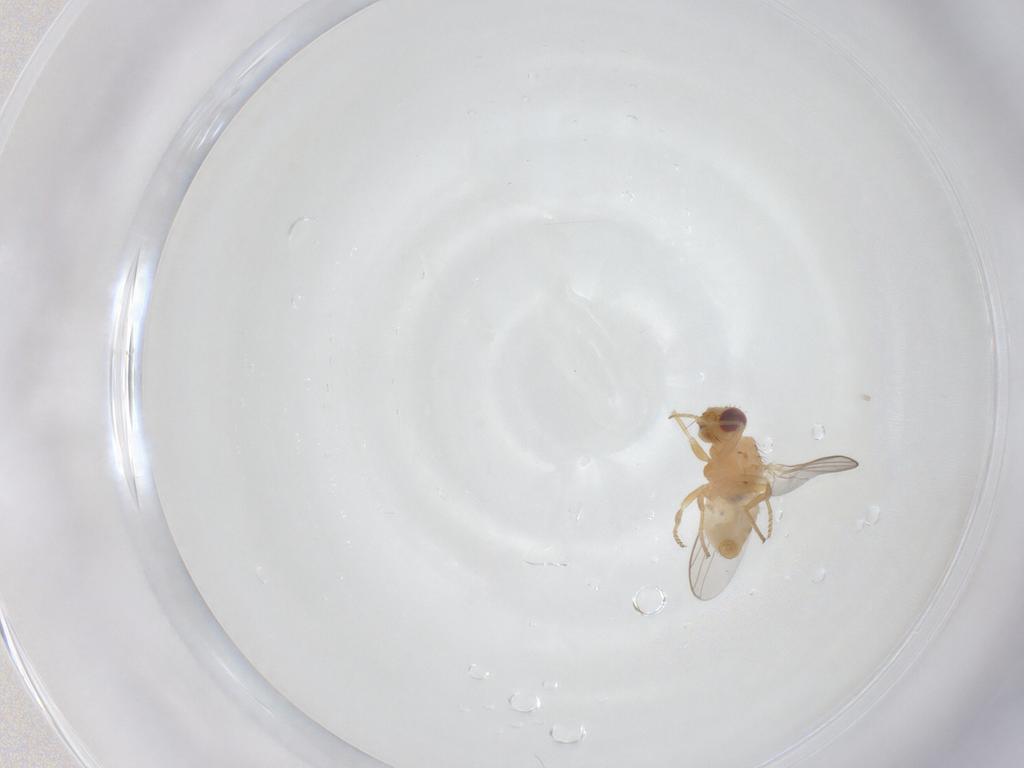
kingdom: Animalia
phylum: Arthropoda
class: Insecta
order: Diptera
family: Chloropidae
